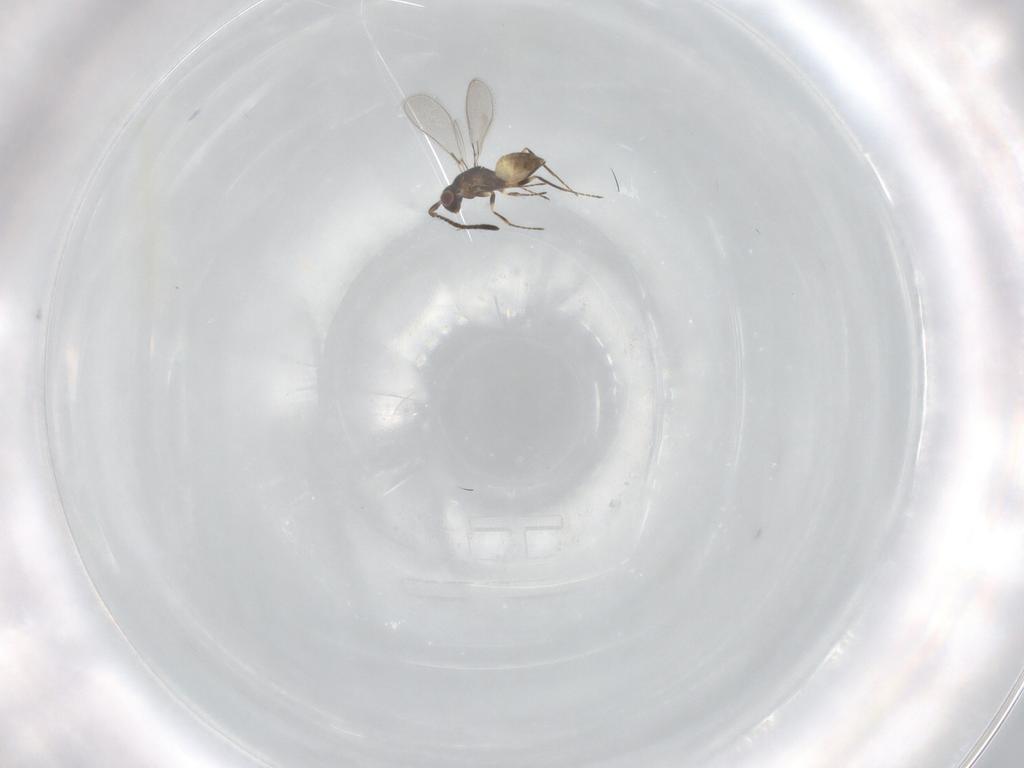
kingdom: Animalia
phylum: Arthropoda
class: Insecta
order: Hymenoptera
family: Mymaridae
